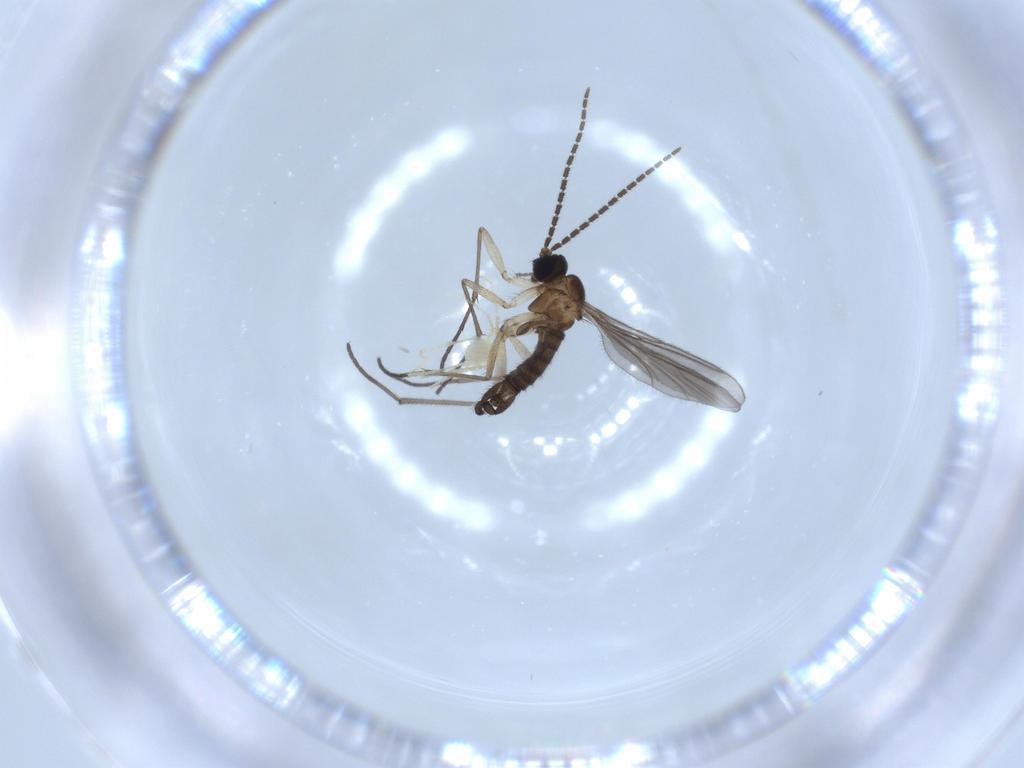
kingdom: Animalia
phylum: Arthropoda
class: Insecta
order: Diptera
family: Sciaridae
